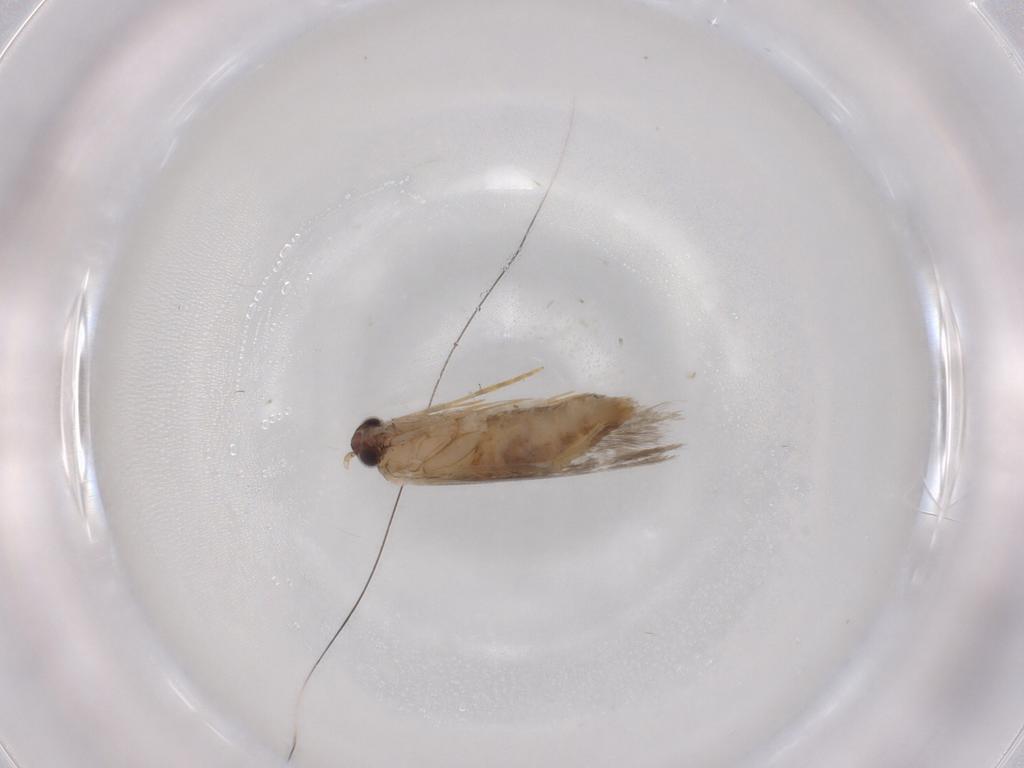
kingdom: Animalia
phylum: Arthropoda
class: Insecta
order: Lepidoptera
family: Tineidae
